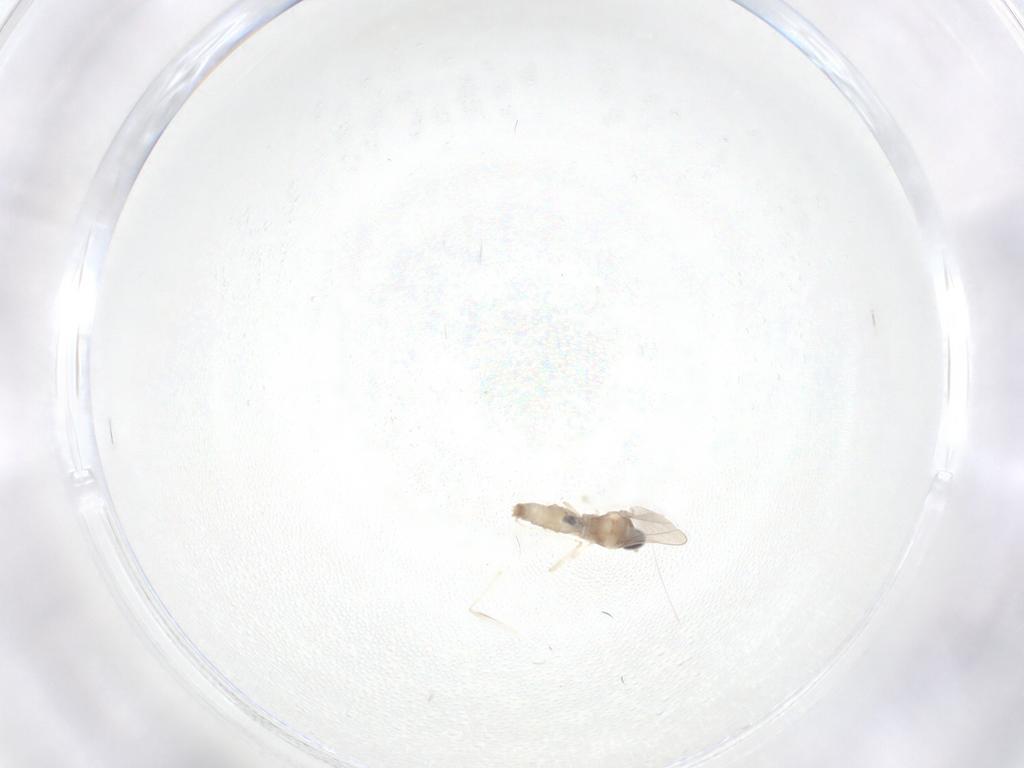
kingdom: Animalia
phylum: Arthropoda
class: Insecta
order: Diptera
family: Cecidomyiidae
